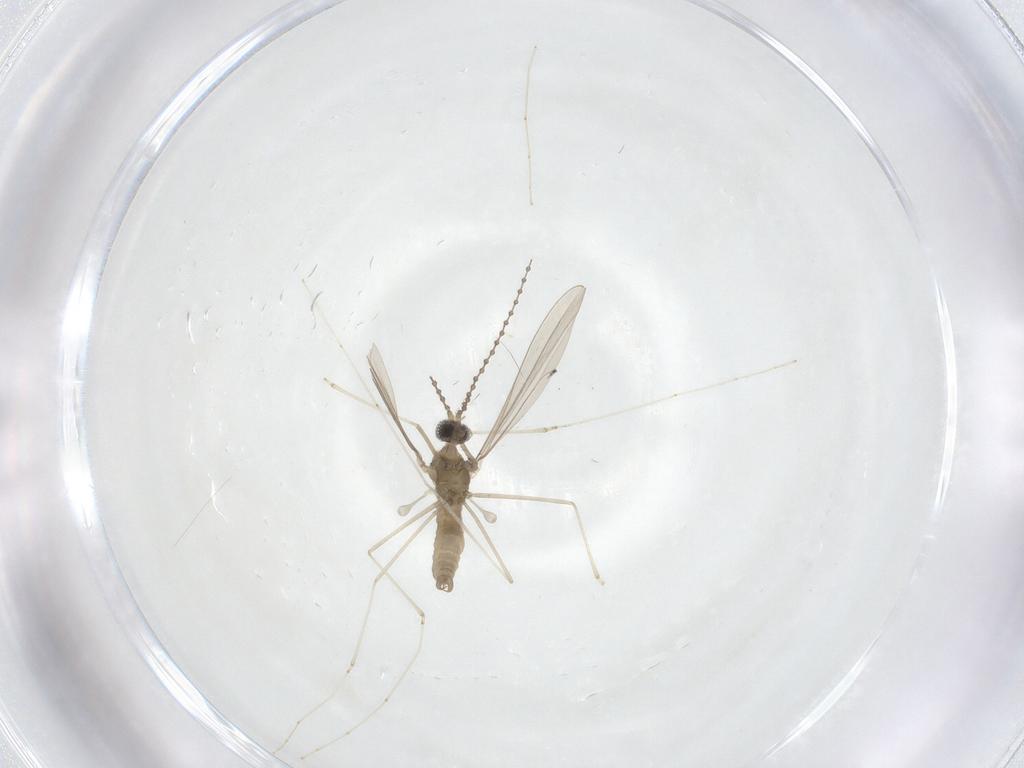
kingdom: Animalia
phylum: Arthropoda
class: Insecta
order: Diptera
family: Cecidomyiidae
